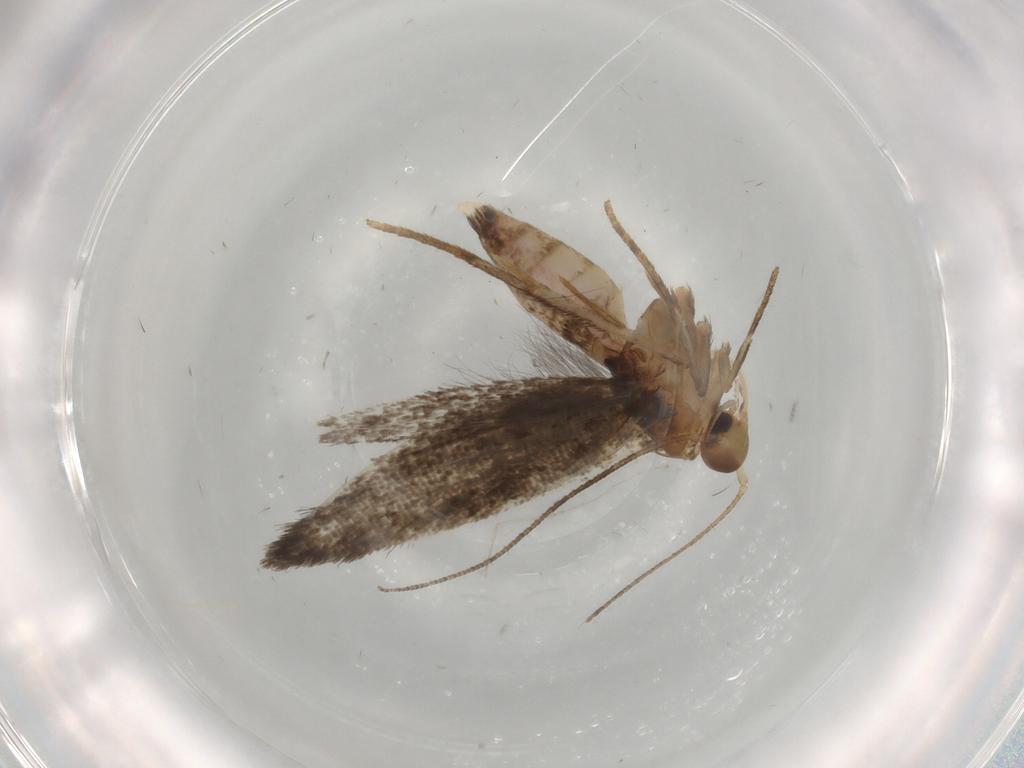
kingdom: Animalia
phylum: Arthropoda
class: Insecta
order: Lepidoptera
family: Cosmopterigidae
